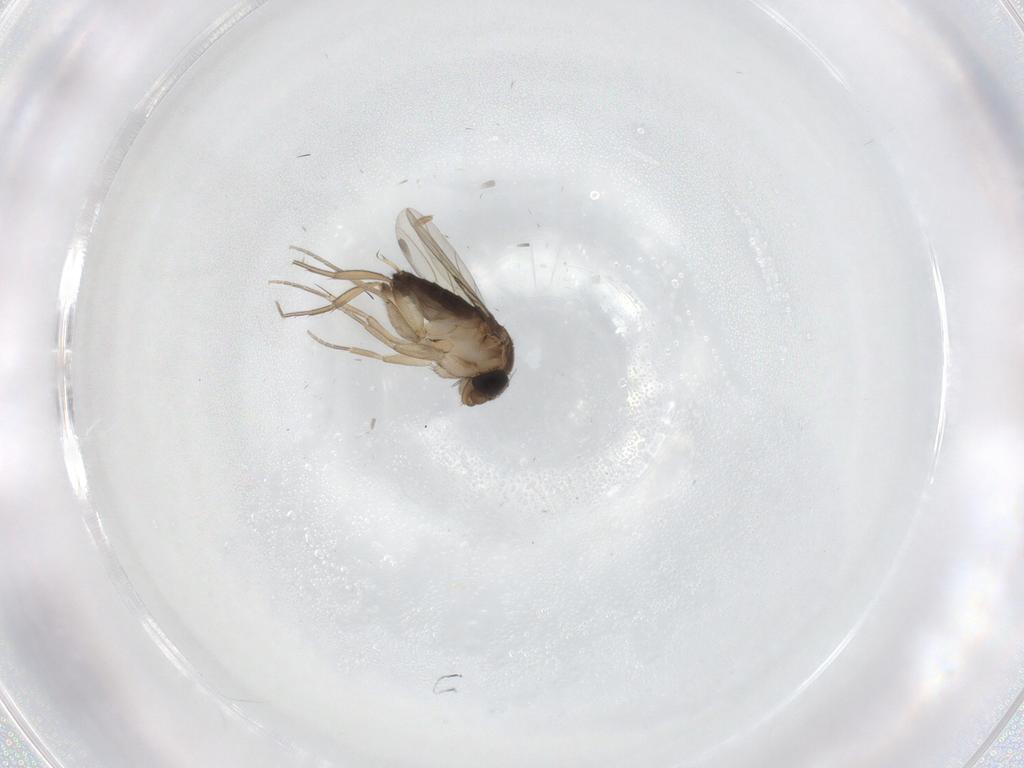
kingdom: Animalia
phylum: Arthropoda
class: Insecta
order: Diptera
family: Phoridae
